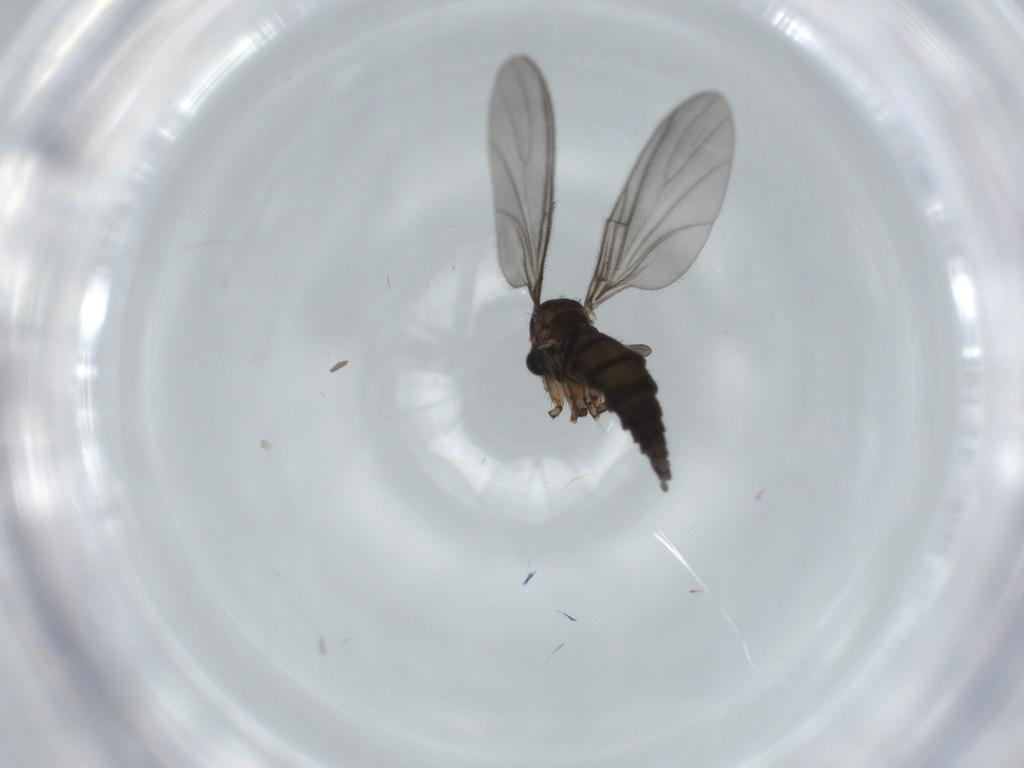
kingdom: Animalia
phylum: Arthropoda
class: Insecta
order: Diptera
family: Sciaridae
